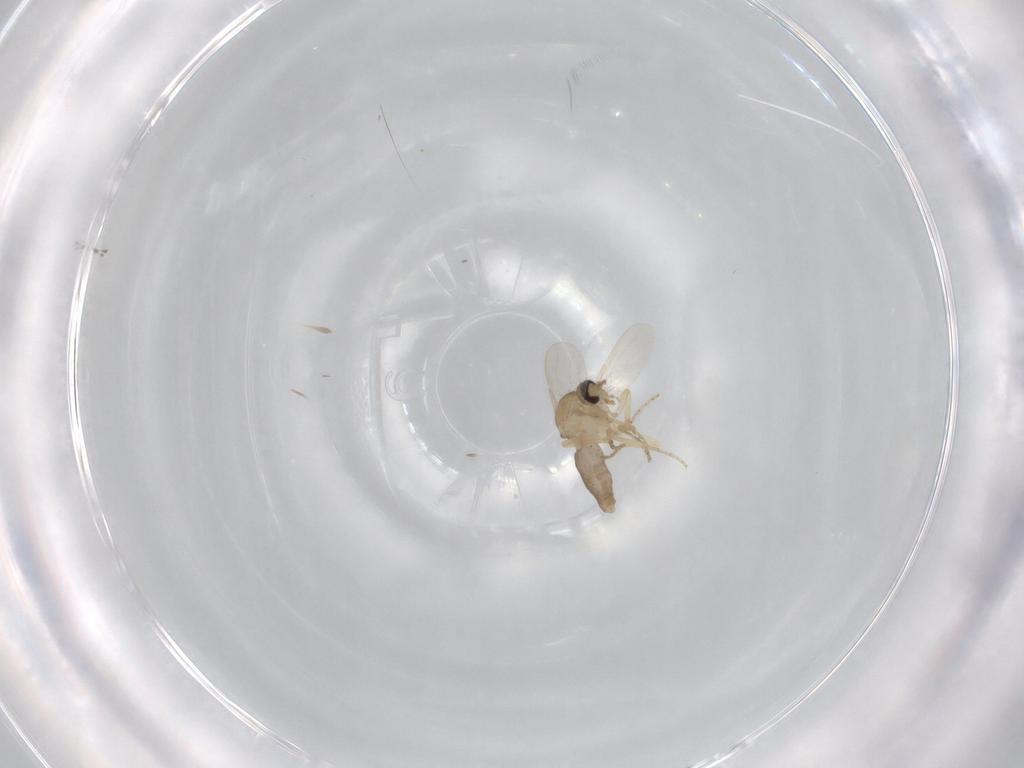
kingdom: Animalia
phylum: Arthropoda
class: Insecta
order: Diptera
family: Ceratopogonidae
